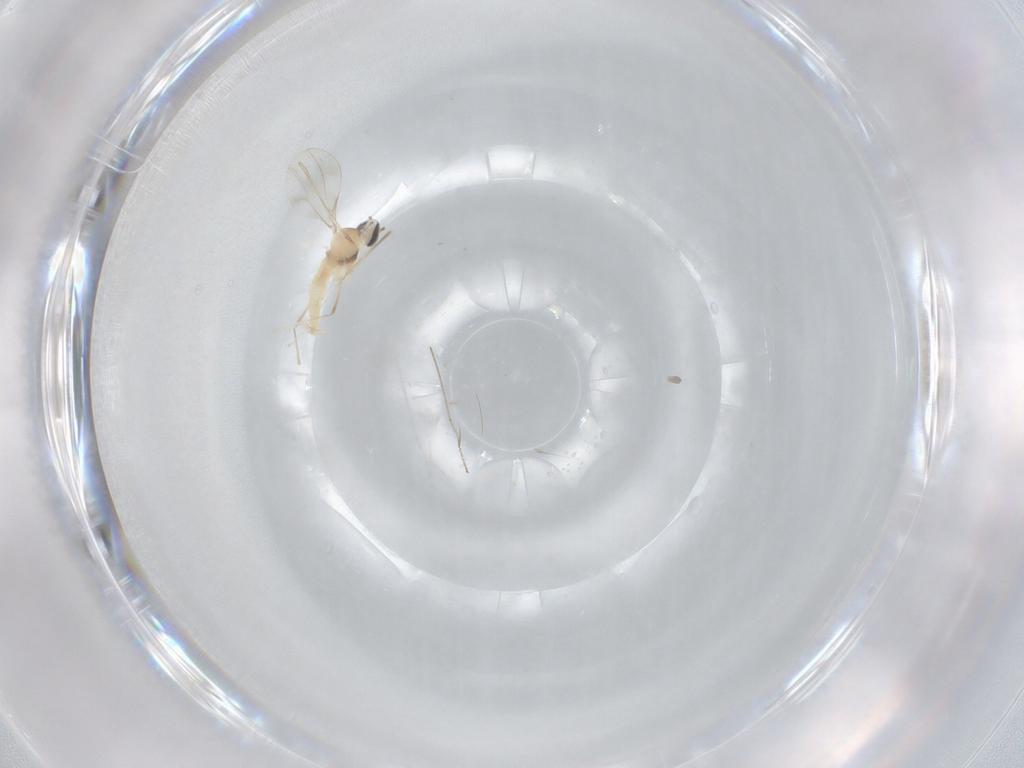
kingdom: Animalia
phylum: Arthropoda
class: Insecta
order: Diptera
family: Cecidomyiidae
